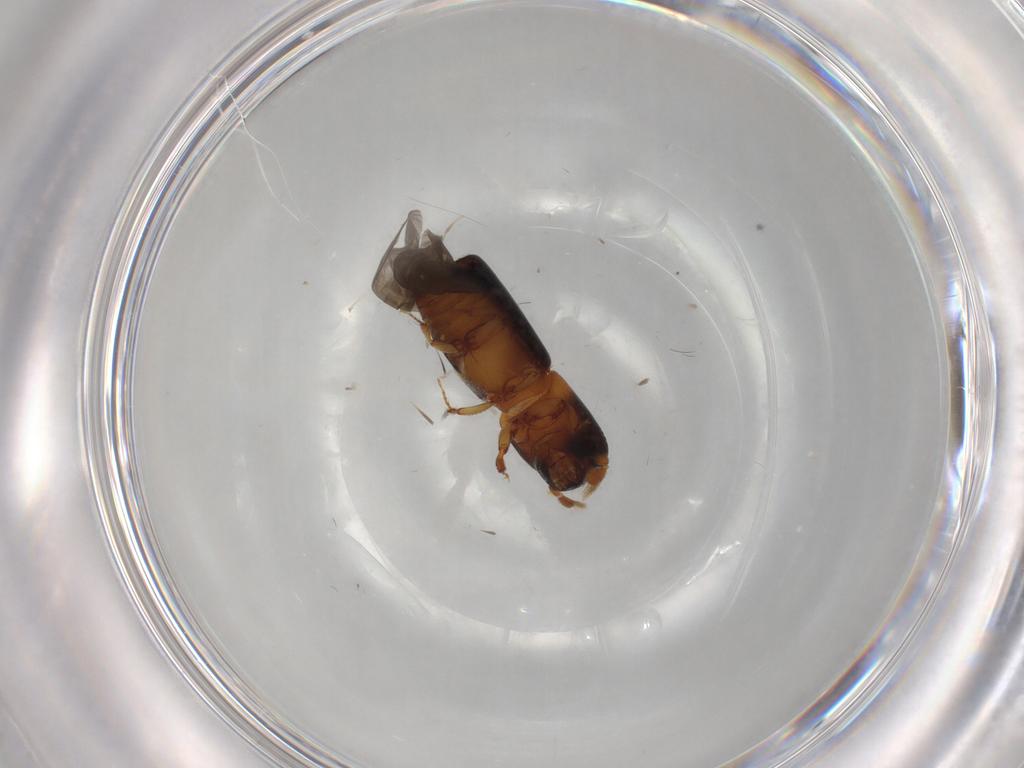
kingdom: Animalia
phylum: Arthropoda
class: Insecta
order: Coleoptera
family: Curculionidae
